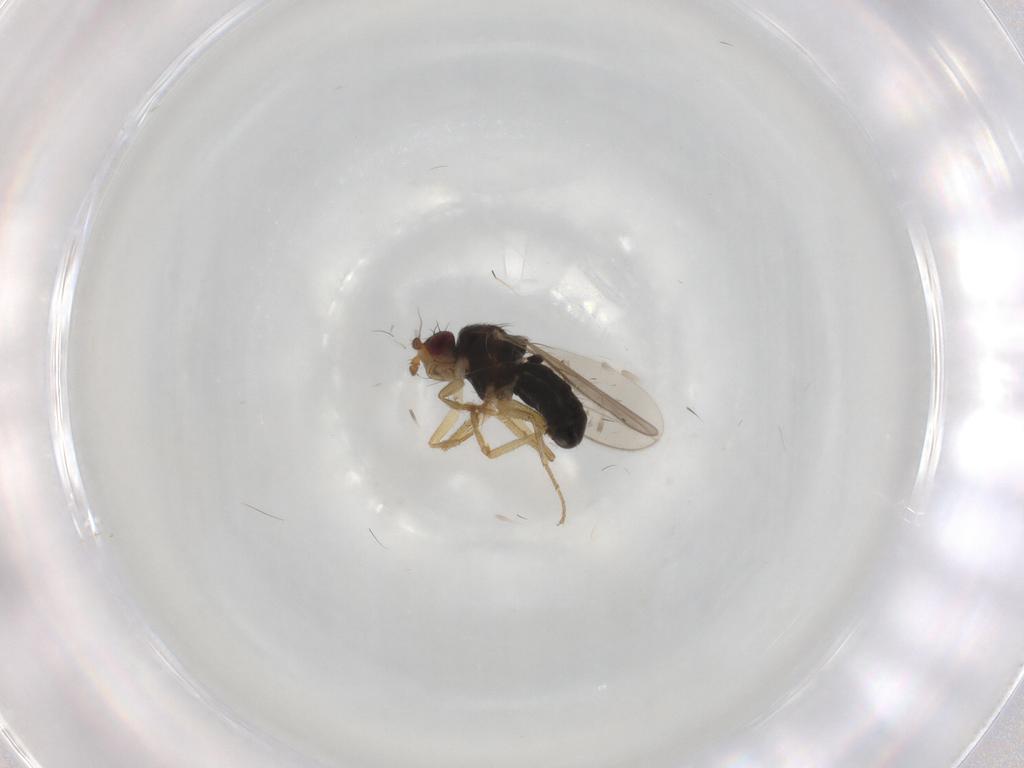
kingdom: Animalia
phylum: Arthropoda
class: Insecta
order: Diptera
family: Sphaeroceridae
